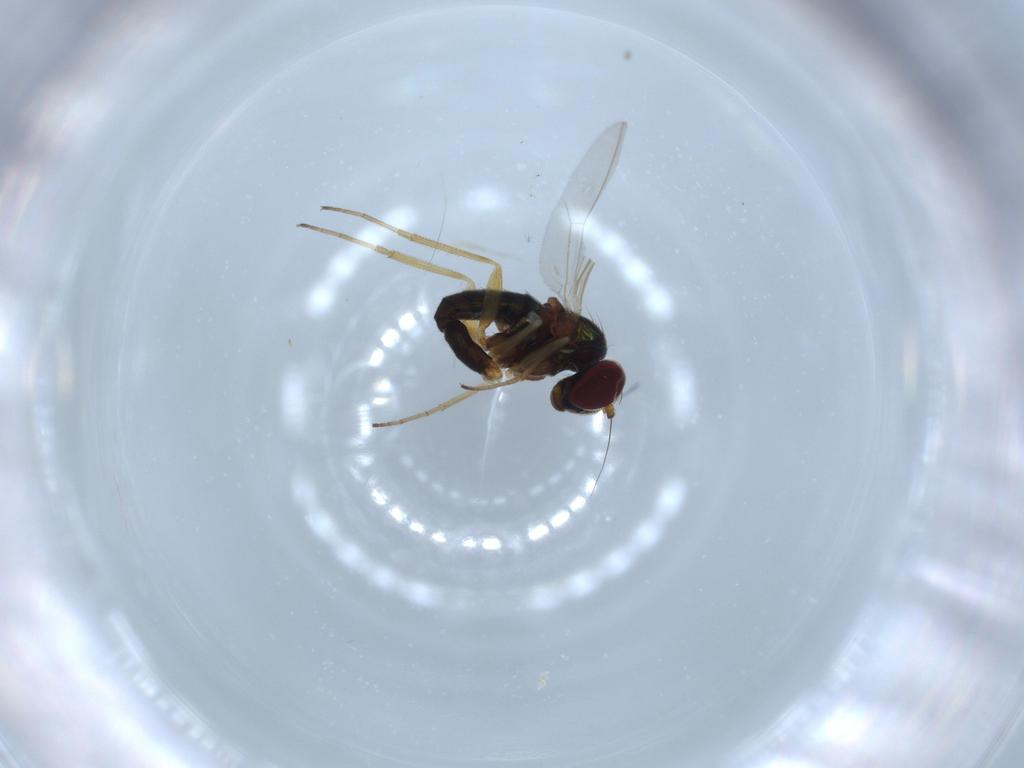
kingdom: Animalia
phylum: Arthropoda
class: Insecta
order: Diptera
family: Dolichopodidae
